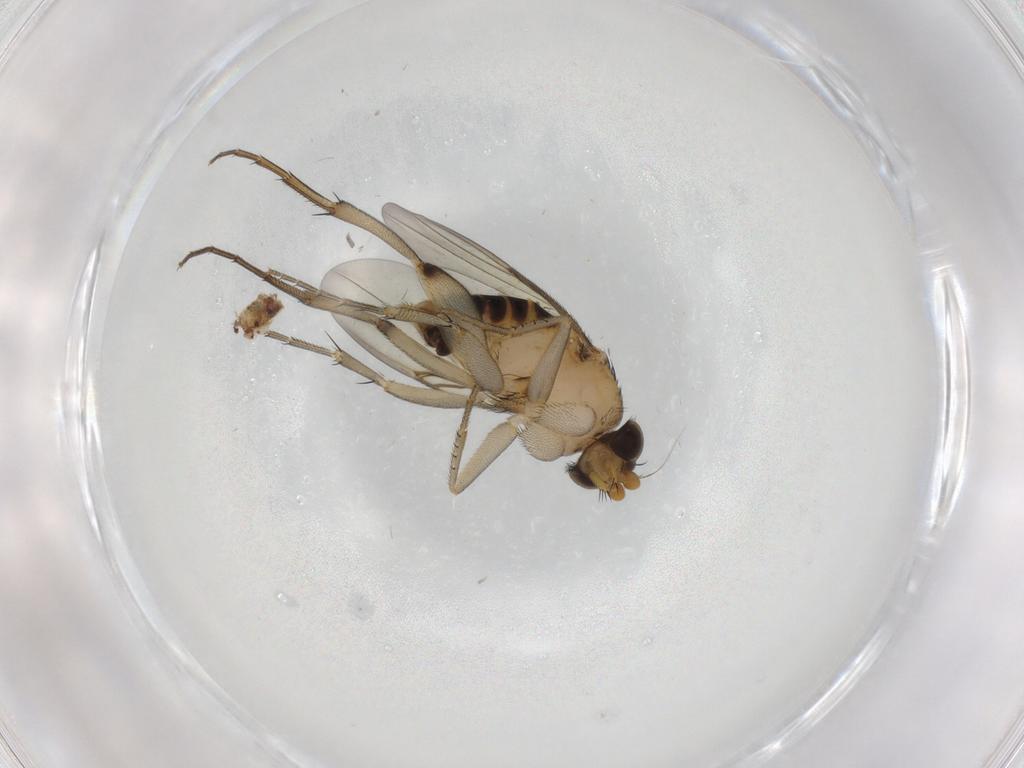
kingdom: Animalia
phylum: Arthropoda
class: Insecta
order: Diptera
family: Phoridae
